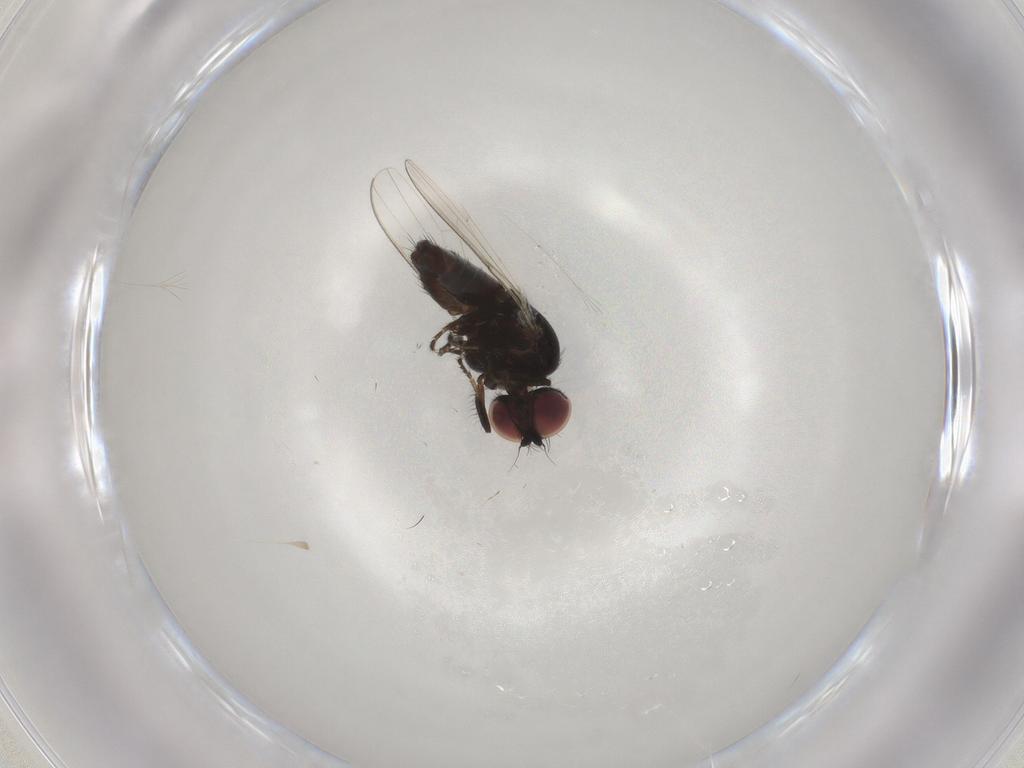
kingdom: Animalia
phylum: Arthropoda
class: Insecta
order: Diptera
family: Milichiidae
